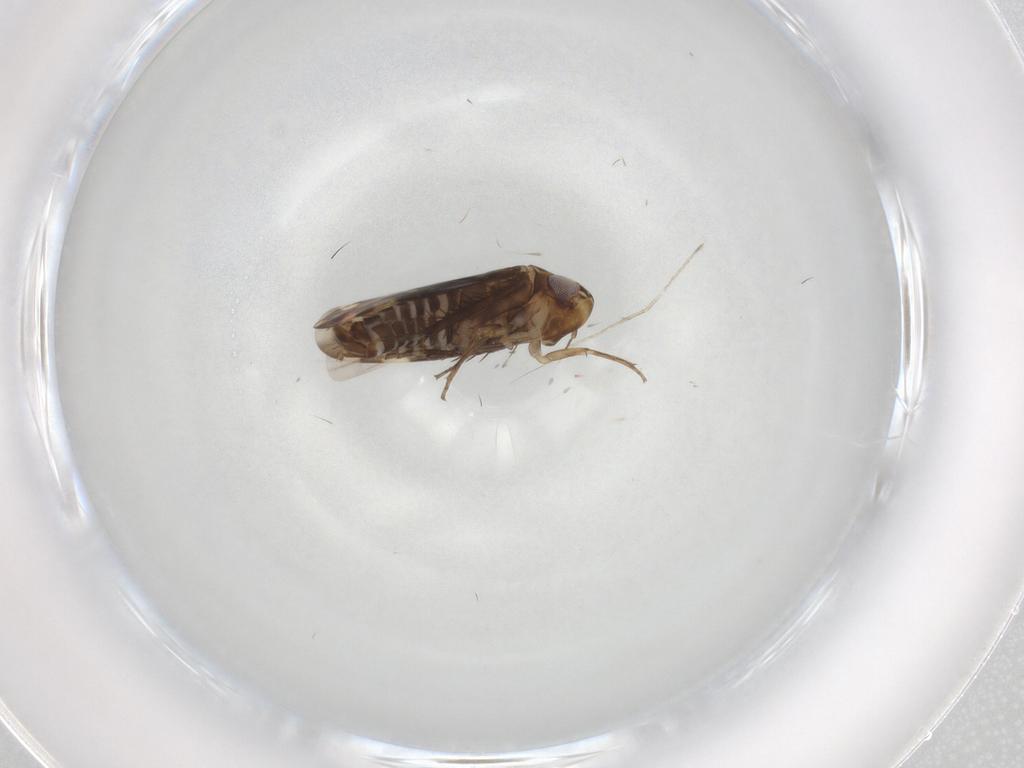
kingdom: Animalia
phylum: Arthropoda
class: Insecta
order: Hemiptera
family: Cicadellidae
